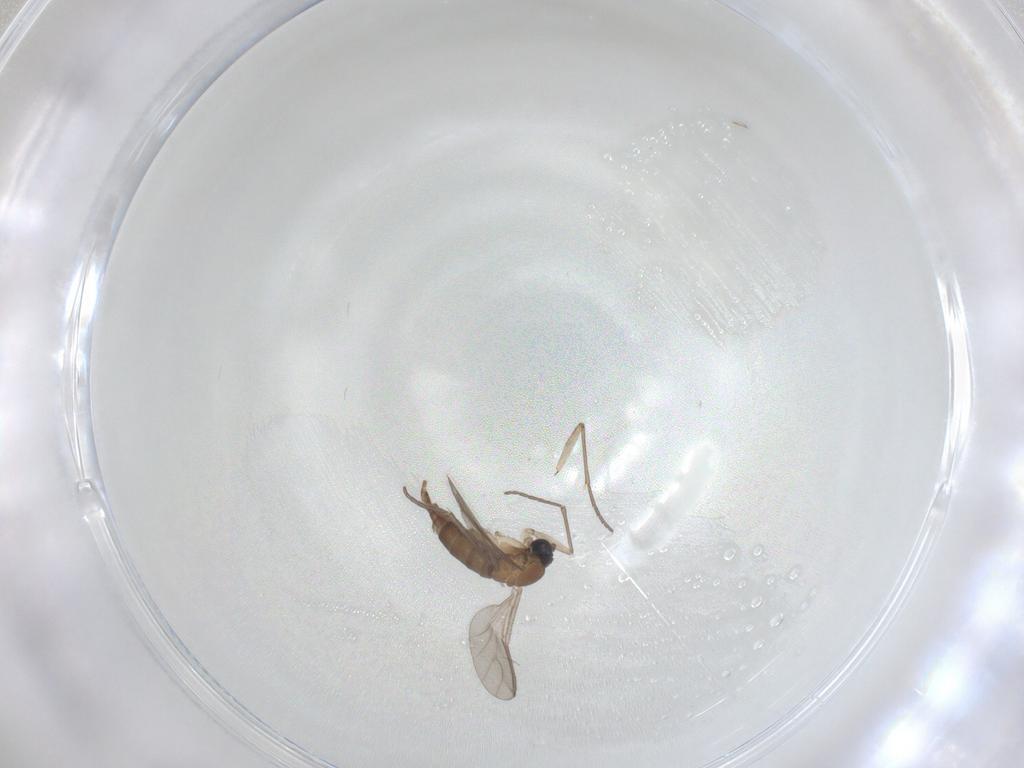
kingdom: Animalia
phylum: Arthropoda
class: Insecta
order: Diptera
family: Sciaridae
